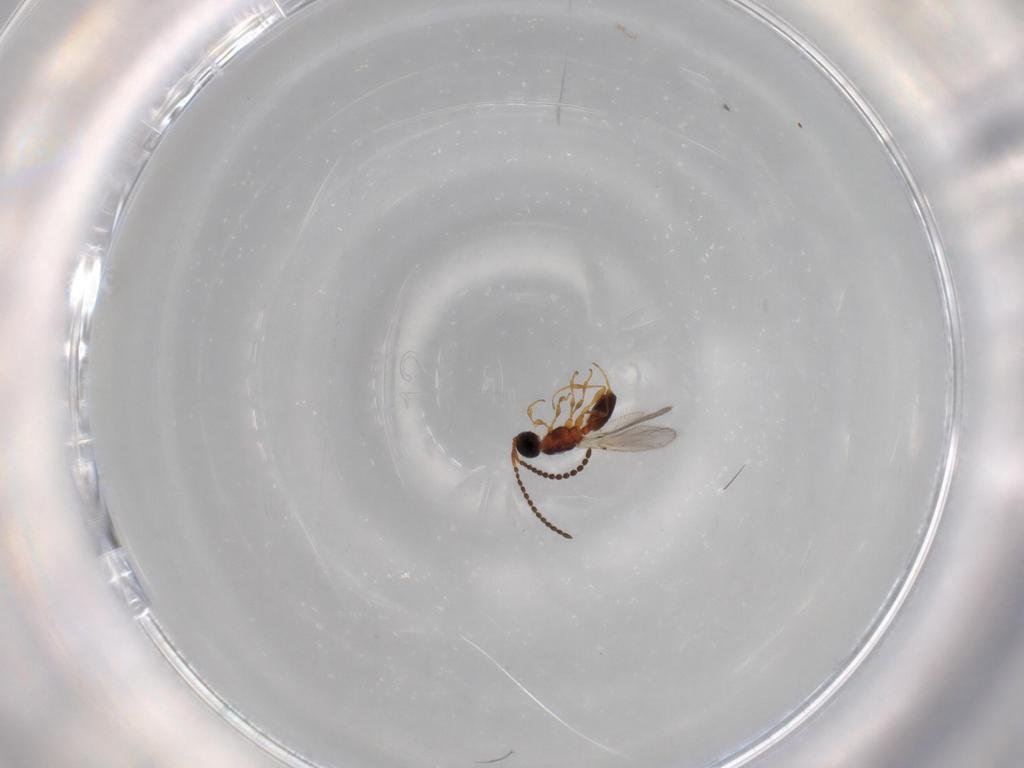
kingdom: Animalia
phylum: Arthropoda
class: Insecta
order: Hymenoptera
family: Diapriidae
